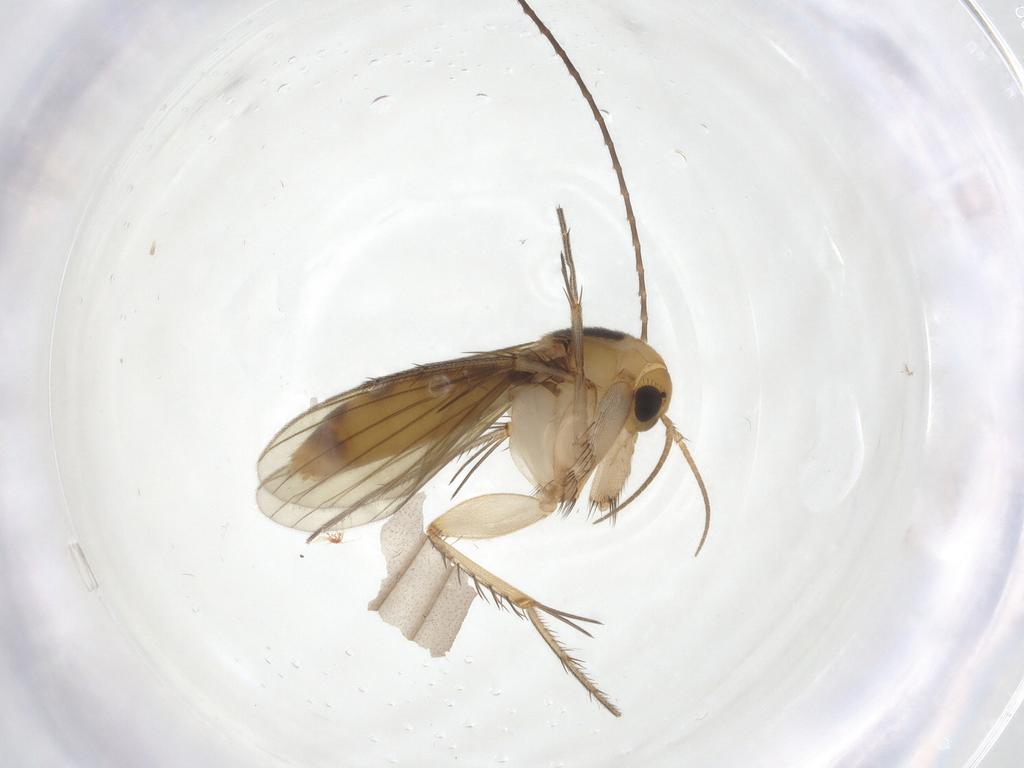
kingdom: Animalia
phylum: Arthropoda
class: Insecta
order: Diptera
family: Mycetophilidae
